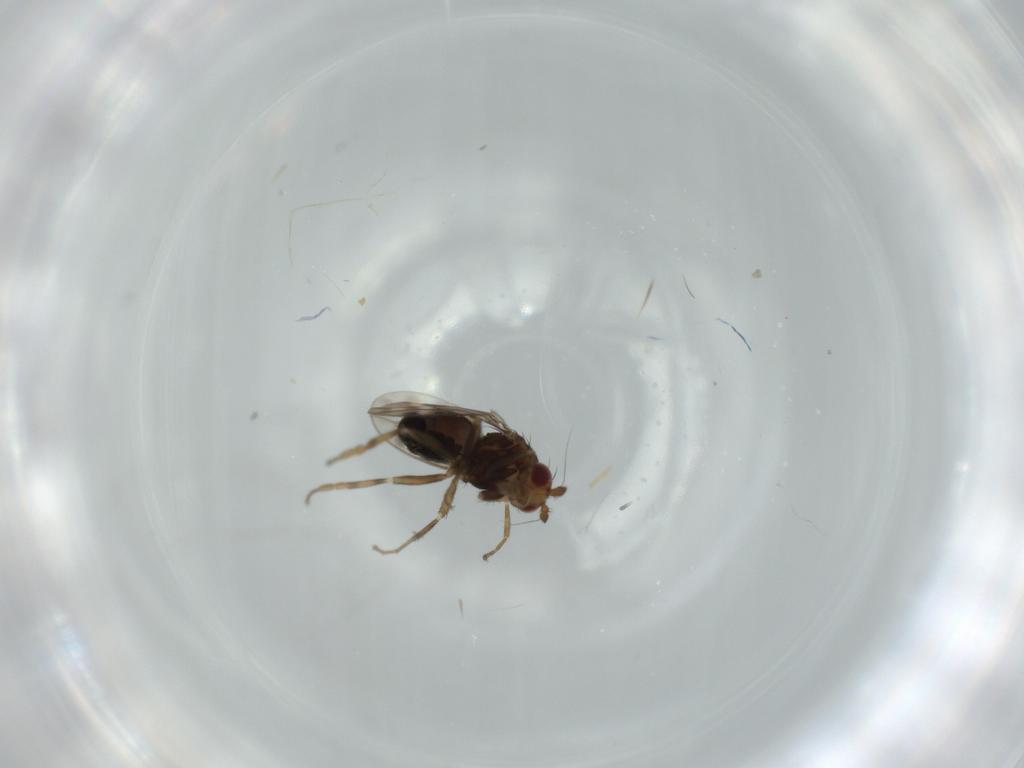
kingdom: Animalia
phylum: Arthropoda
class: Insecta
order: Diptera
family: Sphaeroceridae
